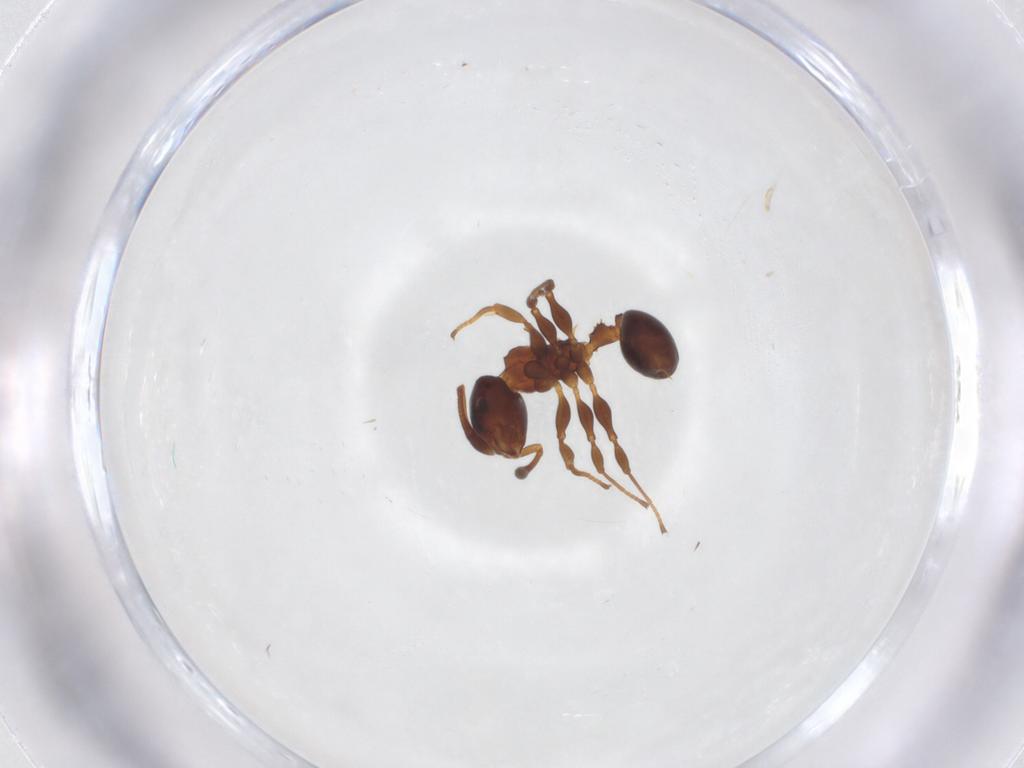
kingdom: Animalia
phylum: Arthropoda
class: Insecta
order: Hymenoptera
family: Formicidae
